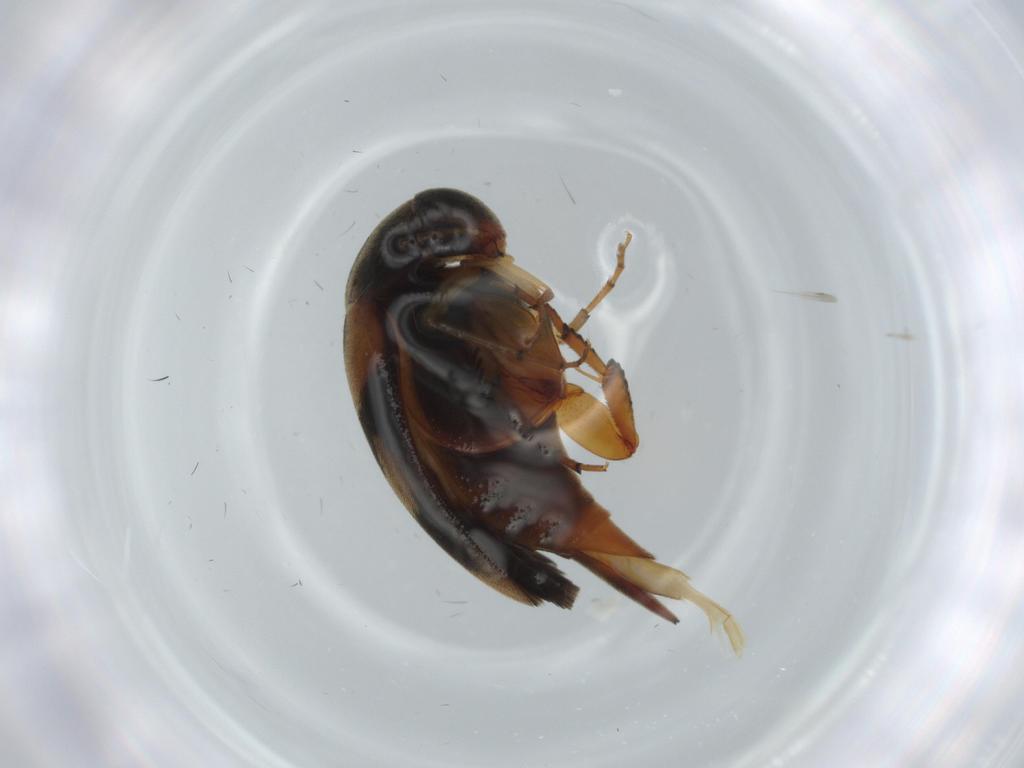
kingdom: Animalia
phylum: Arthropoda
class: Insecta
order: Coleoptera
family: Mordellidae
